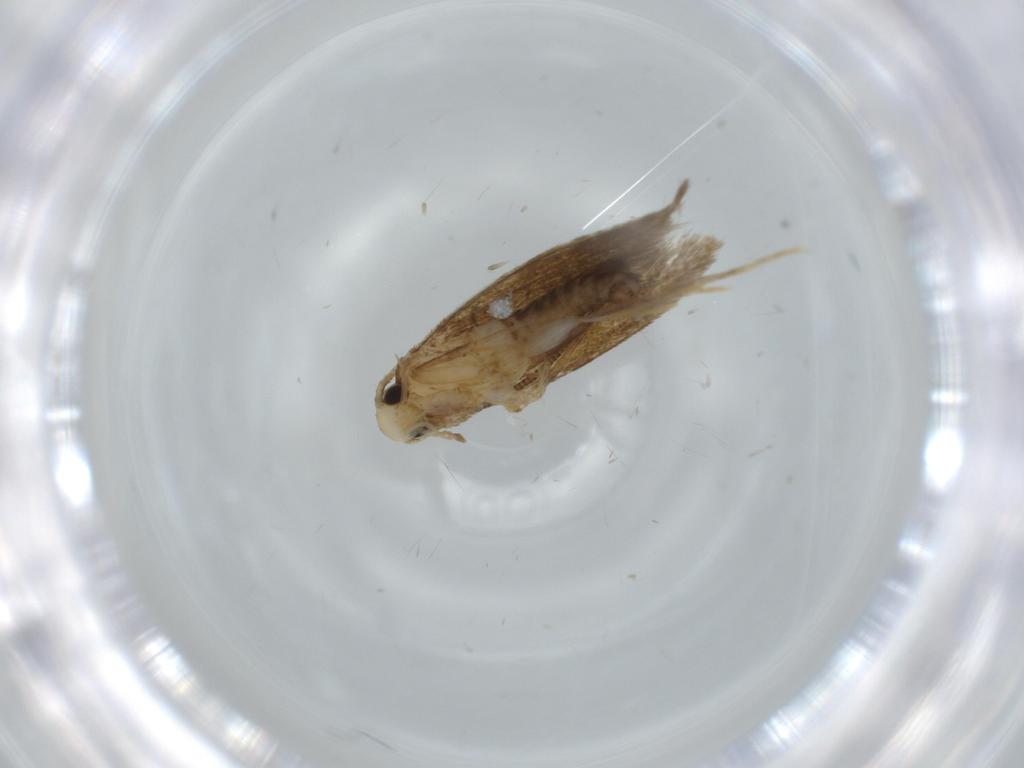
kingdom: Animalia
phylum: Arthropoda
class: Insecta
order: Lepidoptera
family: Tineidae
